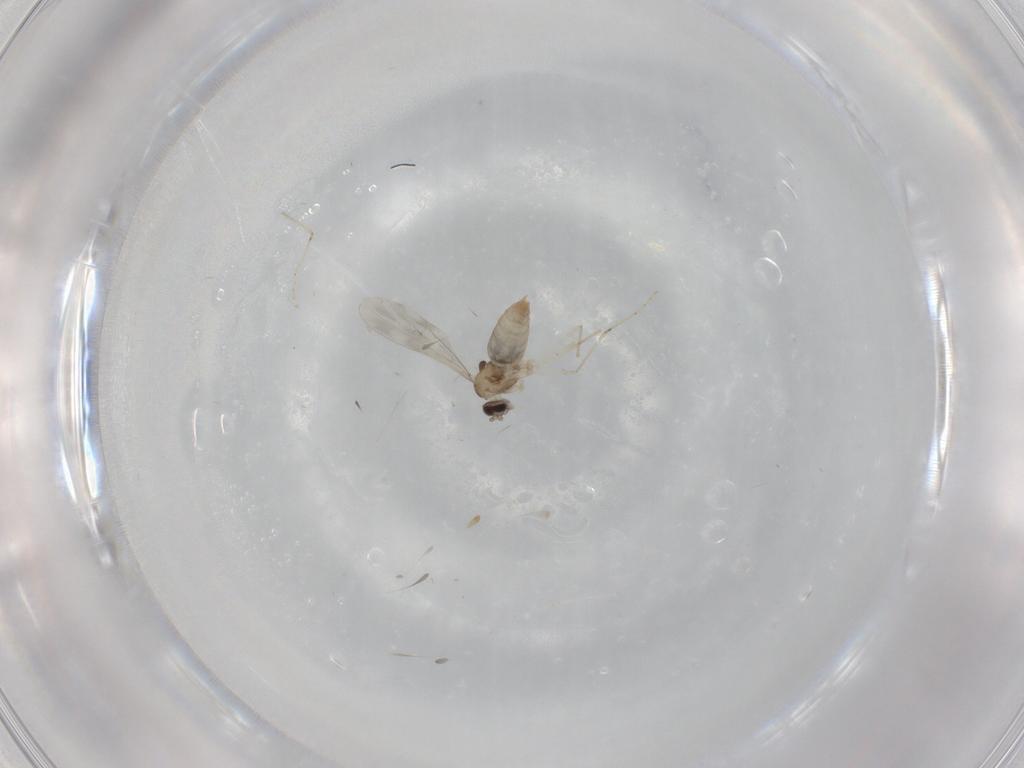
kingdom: Animalia
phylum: Arthropoda
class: Insecta
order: Diptera
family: Cecidomyiidae
